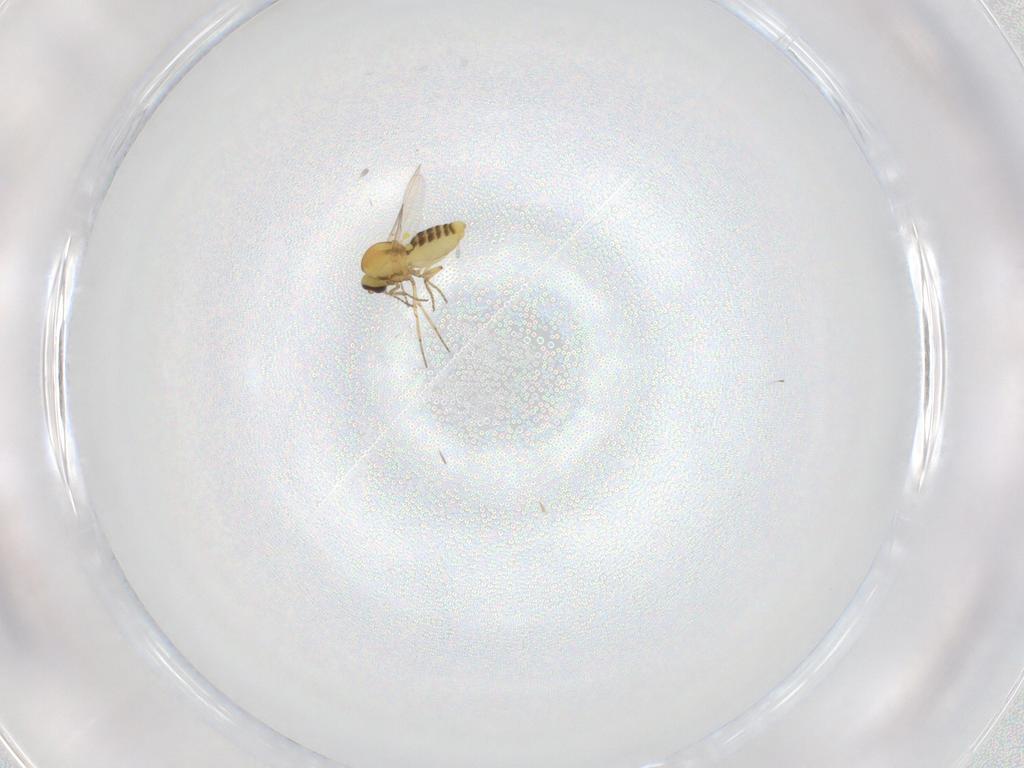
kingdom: Animalia
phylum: Arthropoda
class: Insecta
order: Diptera
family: Ceratopogonidae
